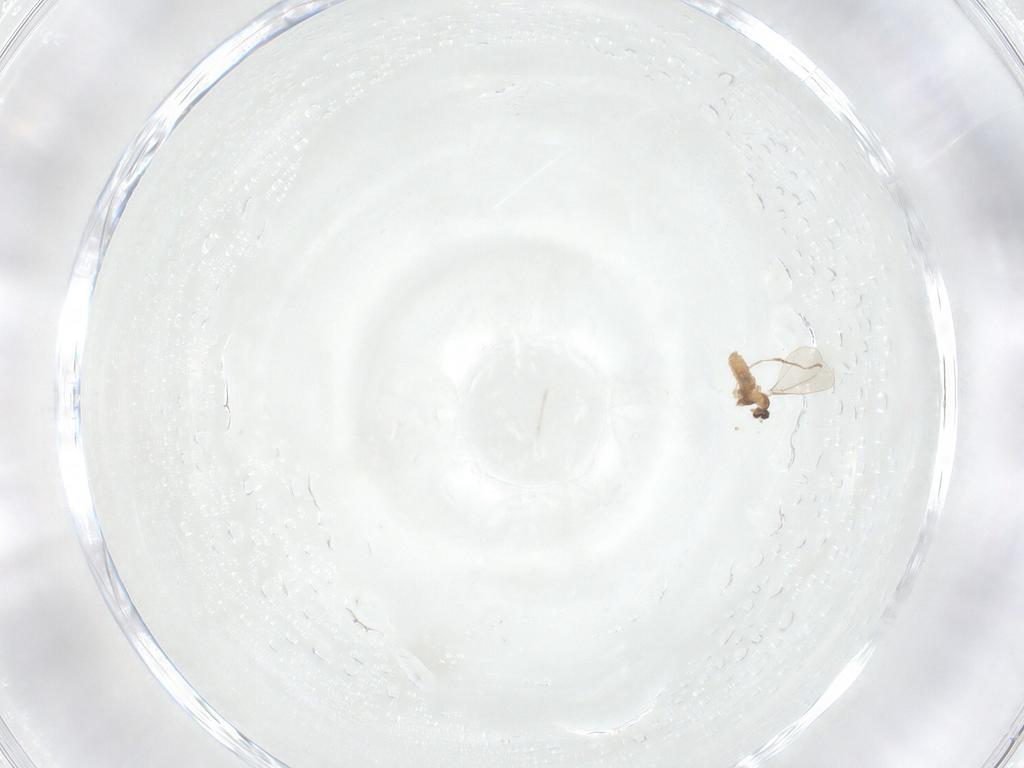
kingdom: Animalia
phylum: Arthropoda
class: Insecta
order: Diptera
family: Cecidomyiidae
